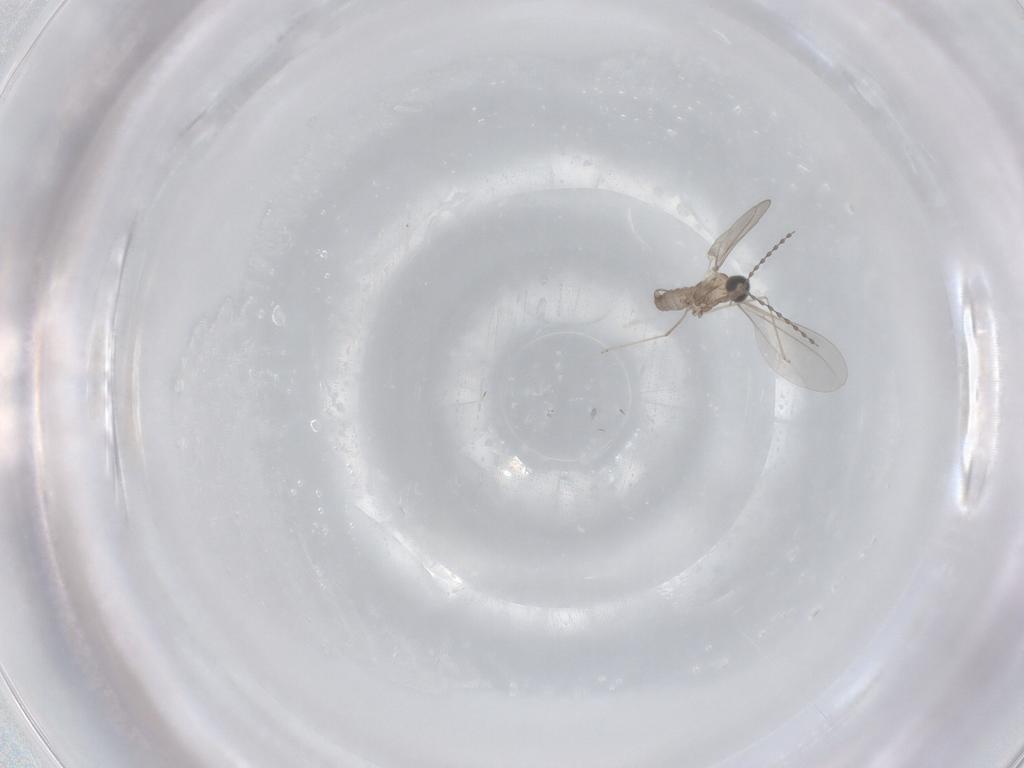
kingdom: Animalia
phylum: Arthropoda
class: Insecta
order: Diptera
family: Cecidomyiidae
